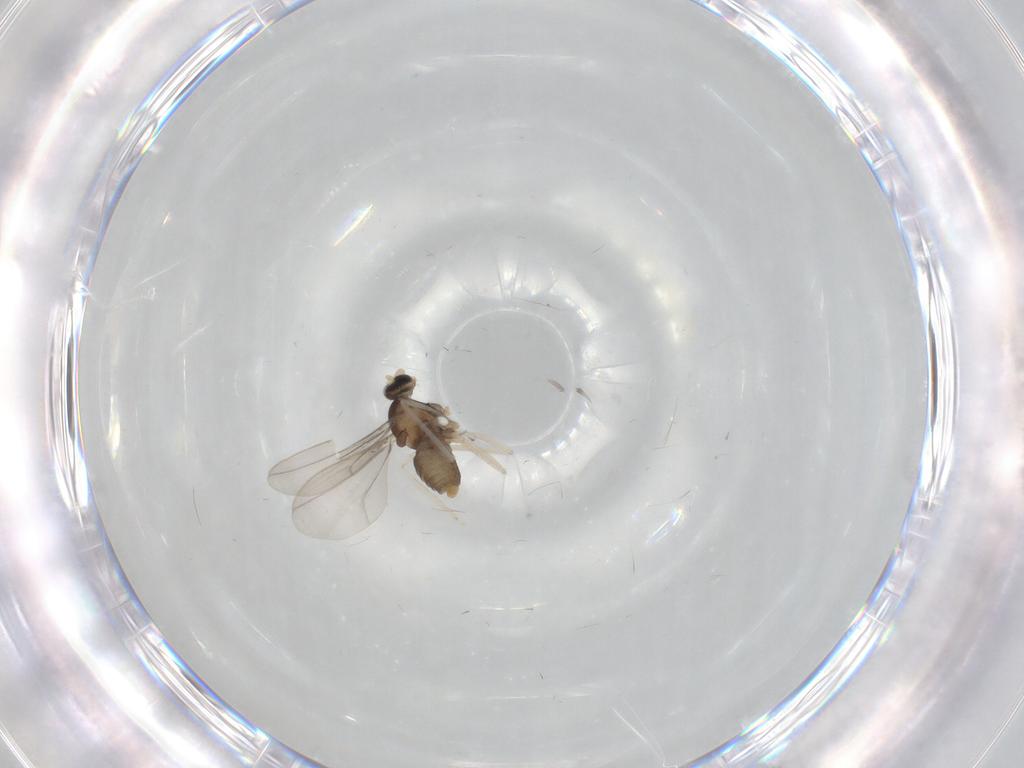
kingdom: Animalia
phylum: Arthropoda
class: Insecta
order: Diptera
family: Cecidomyiidae
